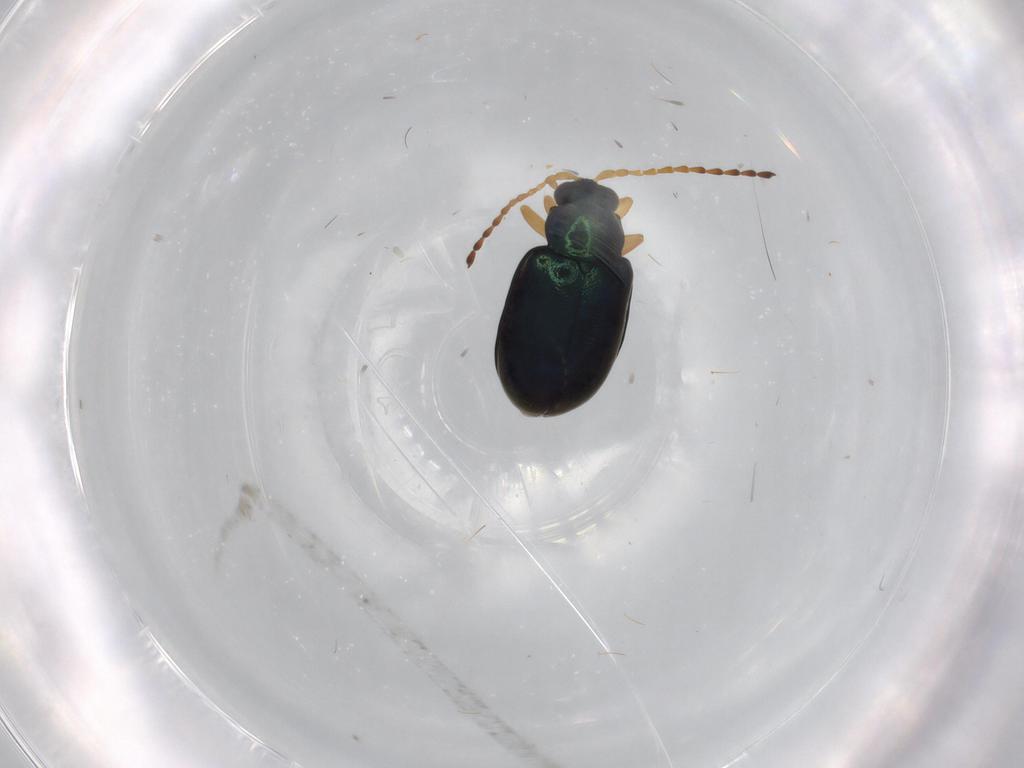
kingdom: Animalia
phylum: Arthropoda
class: Insecta
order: Coleoptera
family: Chrysomelidae
